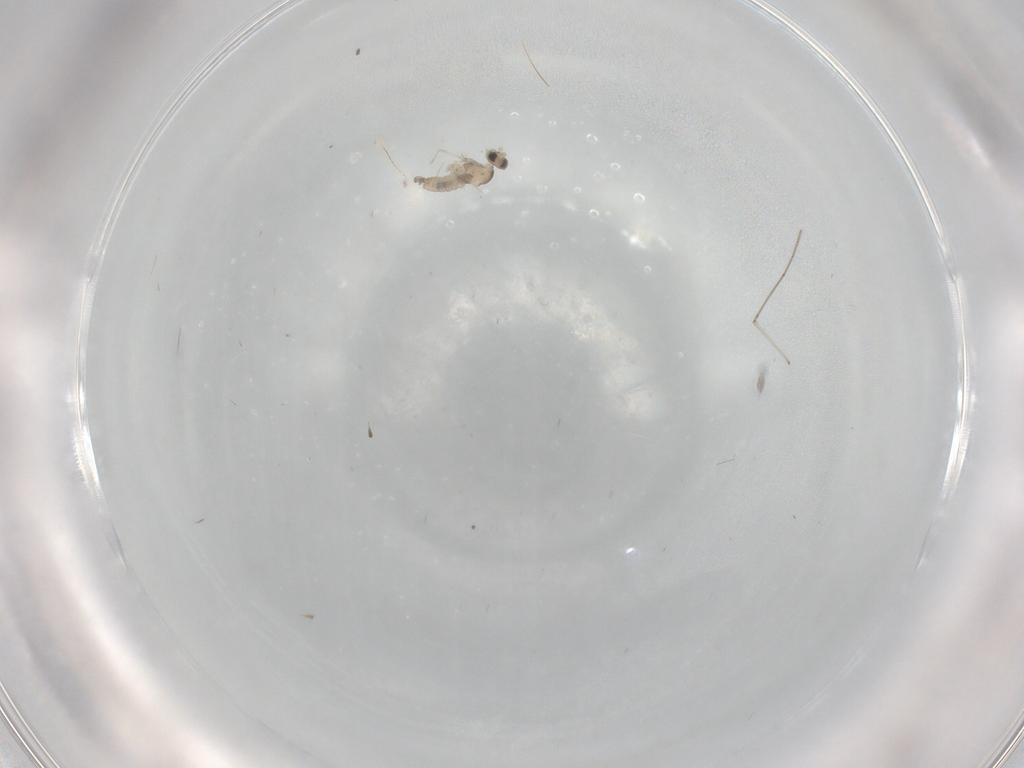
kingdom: Animalia
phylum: Arthropoda
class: Insecta
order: Diptera
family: Cecidomyiidae
